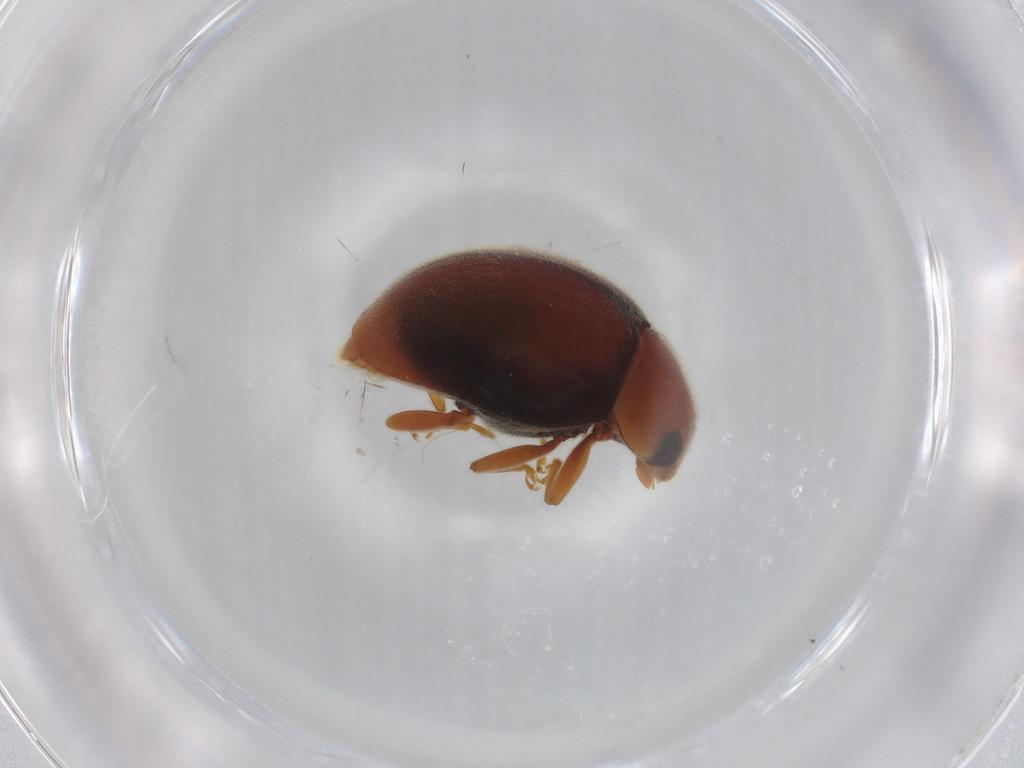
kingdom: Animalia
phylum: Arthropoda
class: Insecta
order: Coleoptera
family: Coccinellidae
